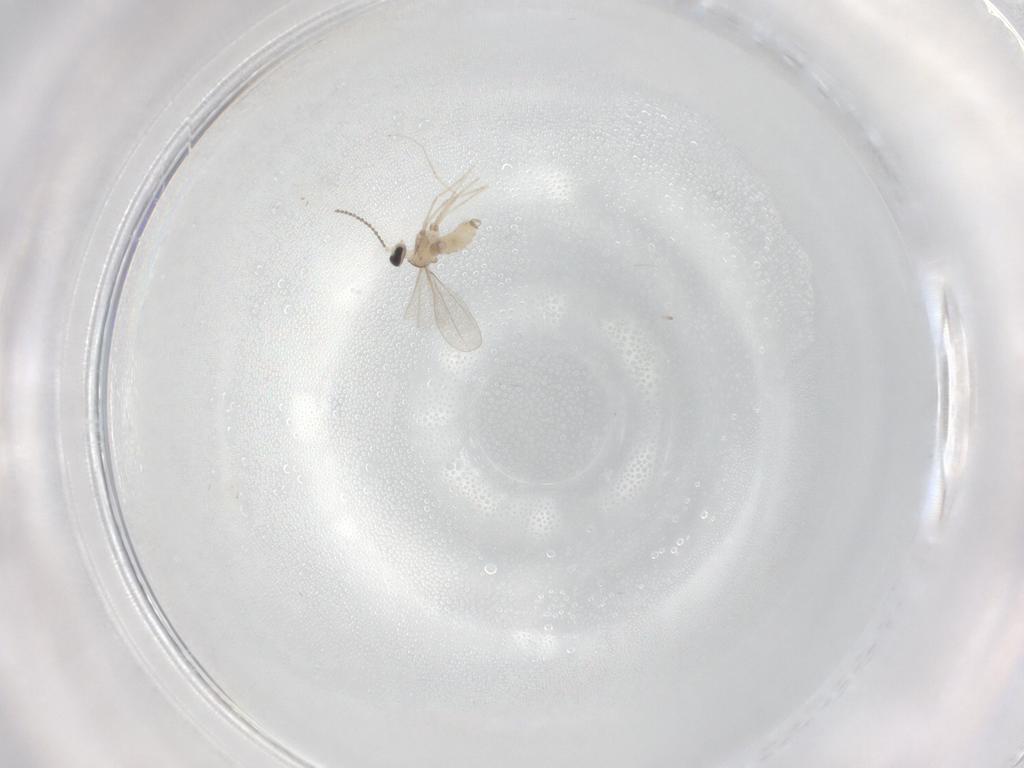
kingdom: Animalia
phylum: Arthropoda
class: Insecta
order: Diptera
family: Cecidomyiidae
